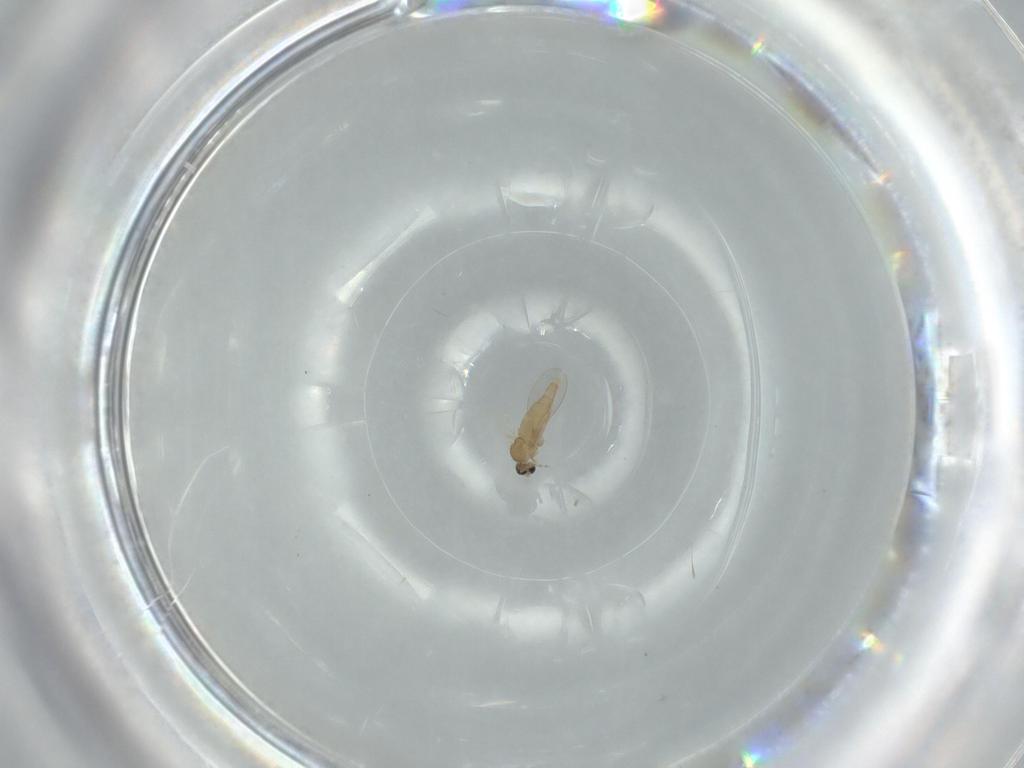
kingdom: Animalia
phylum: Arthropoda
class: Insecta
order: Diptera
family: Cecidomyiidae
